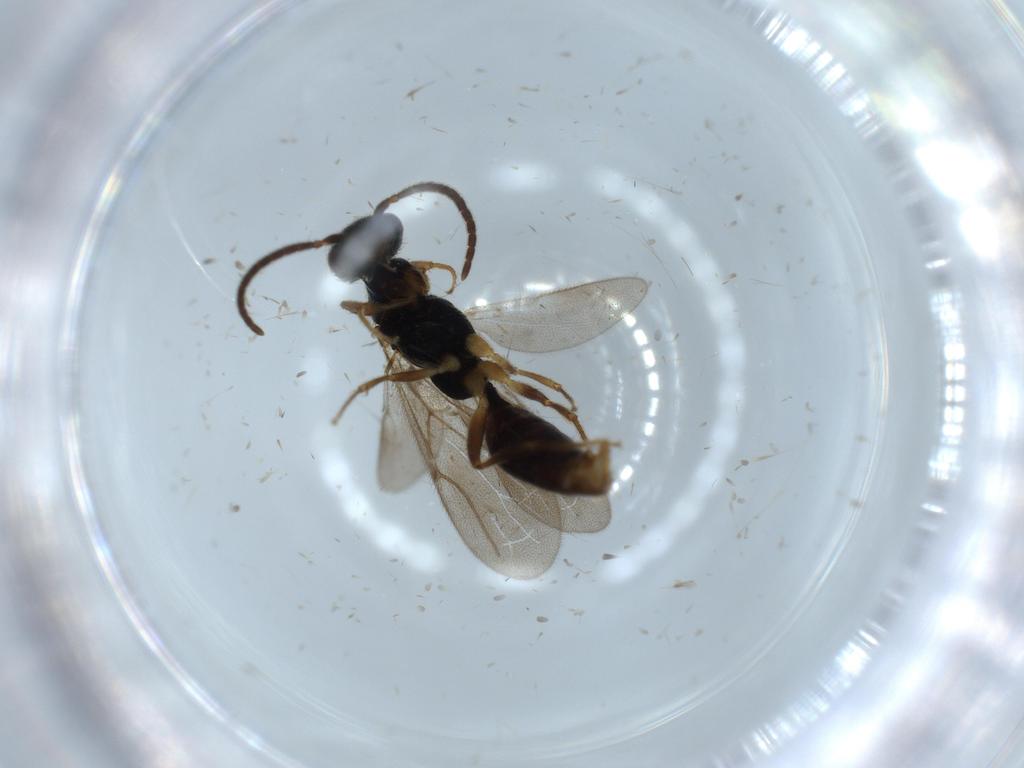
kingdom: Animalia
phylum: Arthropoda
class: Insecta
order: Hymenoptera
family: Bethylidae
